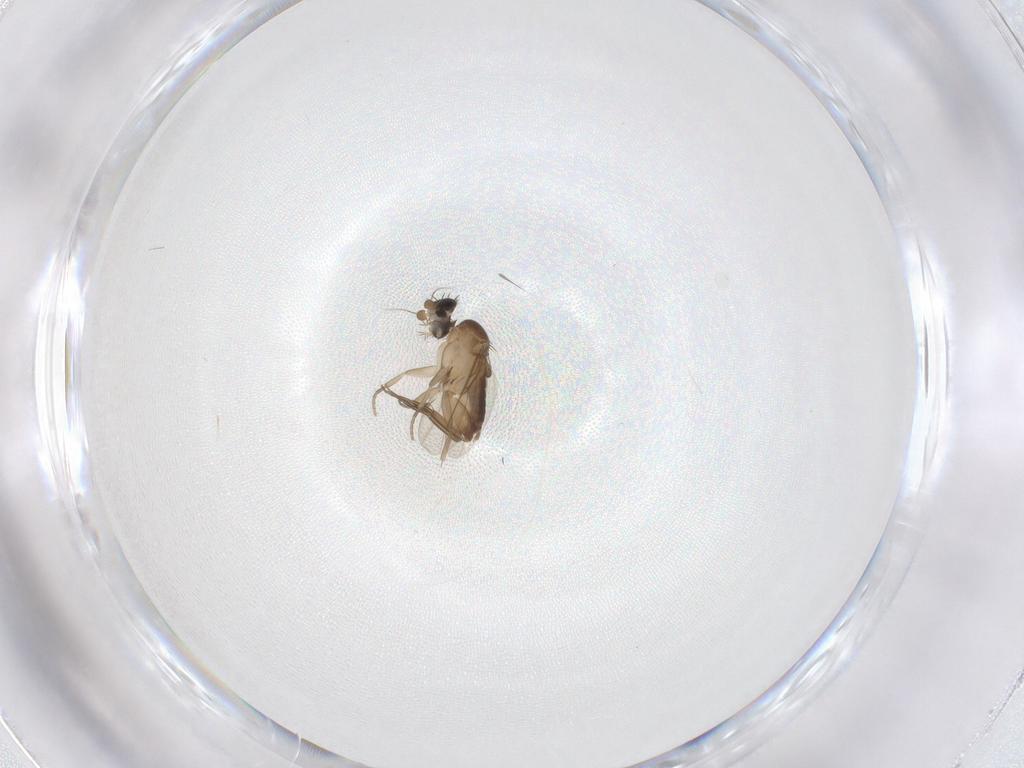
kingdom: Animalia
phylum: Arthropoda
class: Insecta
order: Diptera
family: Phoridae
